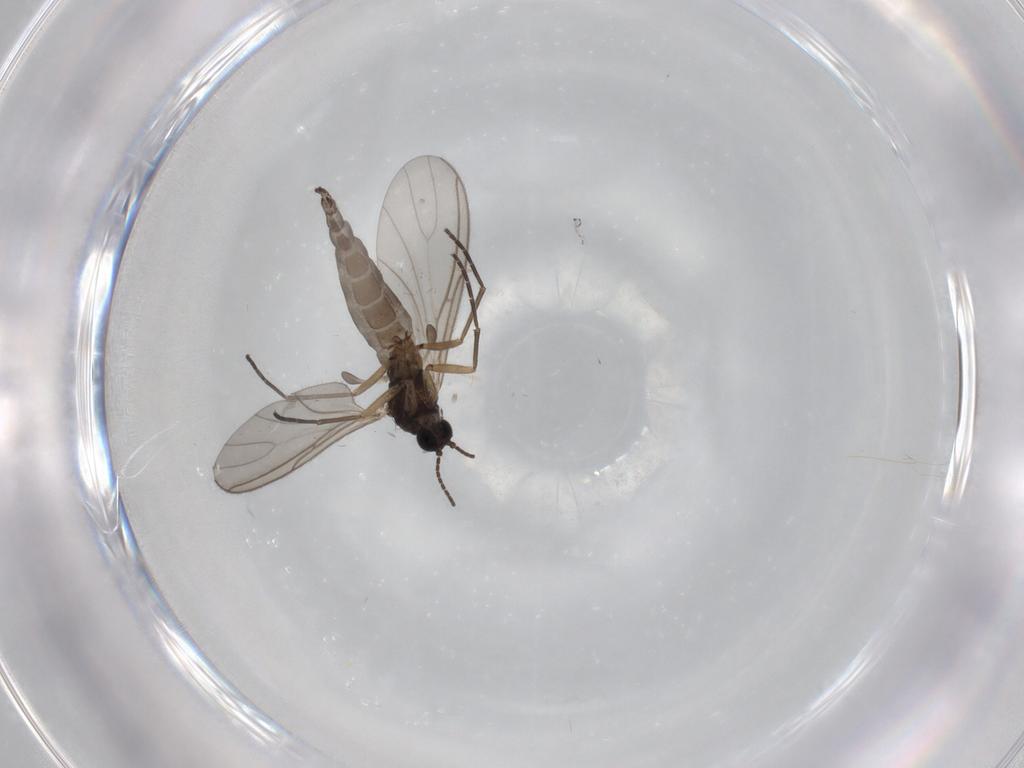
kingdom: Animalia
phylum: Arthropoda
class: Insecta
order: Diptera
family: Sciaridae
